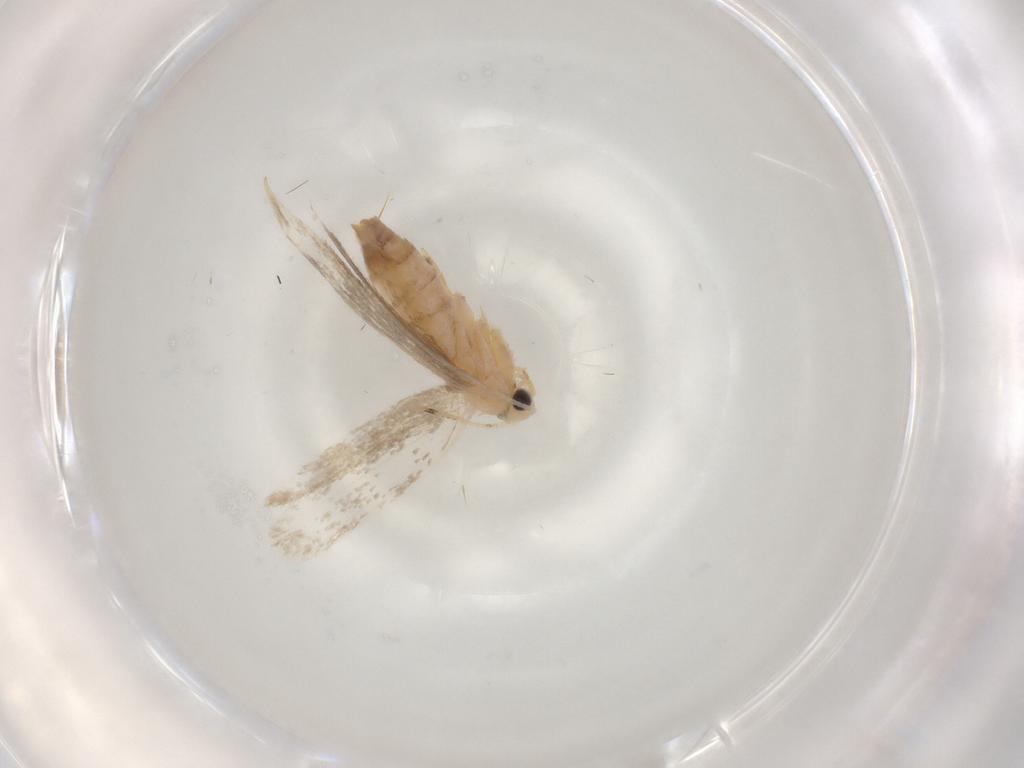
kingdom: Animalia
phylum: Arthropoda
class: Insecta
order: Lepidoptera
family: Dryadaulidae
